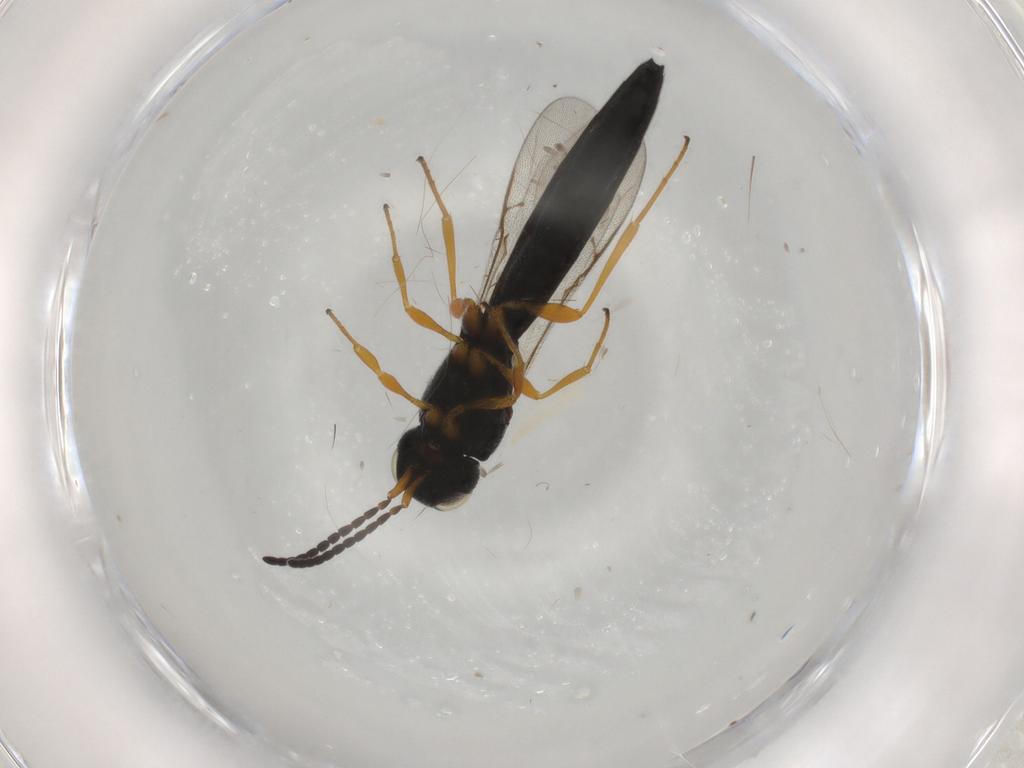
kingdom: Animalia
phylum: Arthropoda
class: Insecta
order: Hymenoptera
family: Scelionidae
